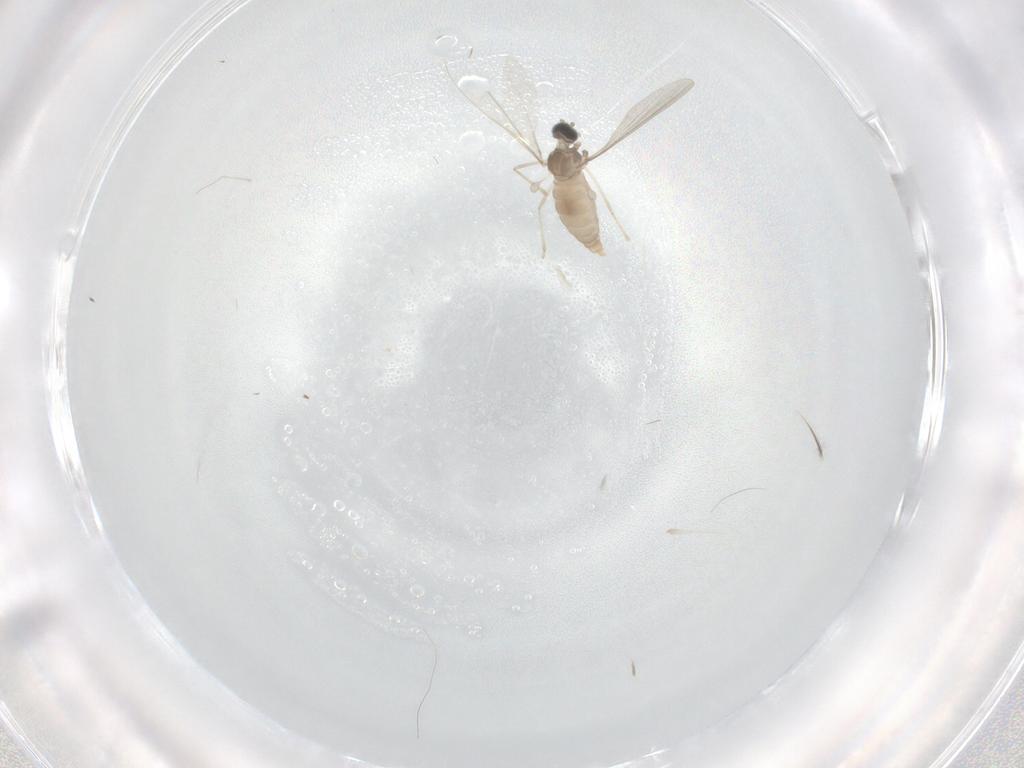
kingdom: Animalia
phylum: Arthropoda
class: Insecta
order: Diptera
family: Cecidomyiidae
